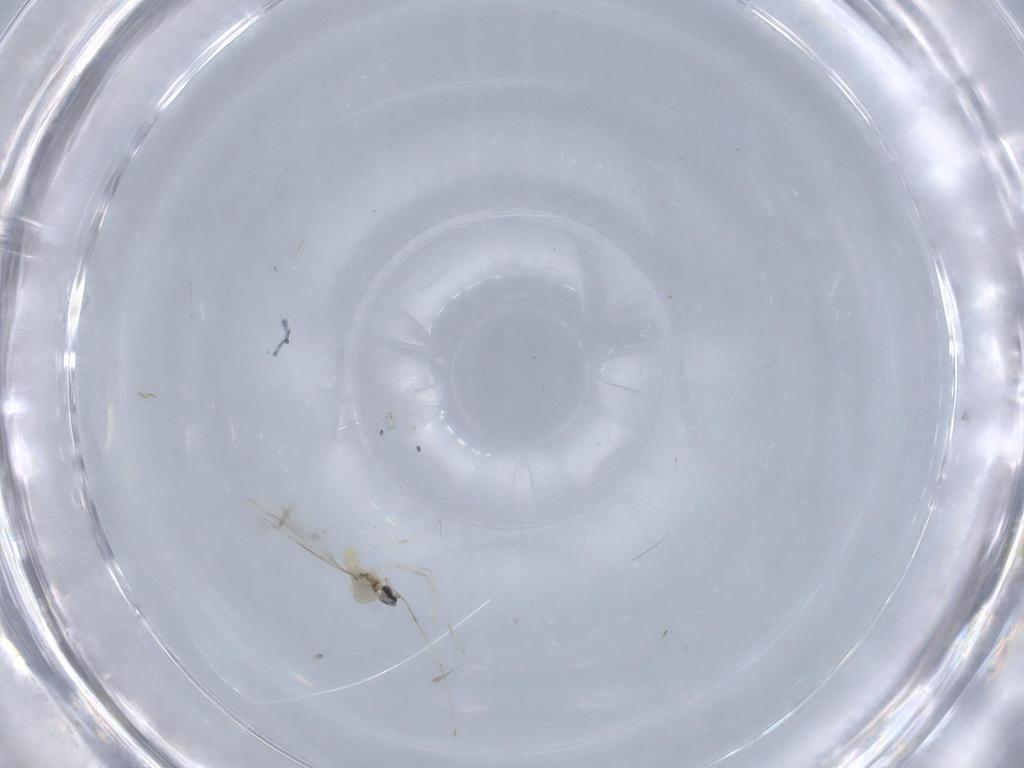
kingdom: Animalia
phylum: Arthropoda
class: Insecta
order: Diptera
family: Cecidomyiidae
